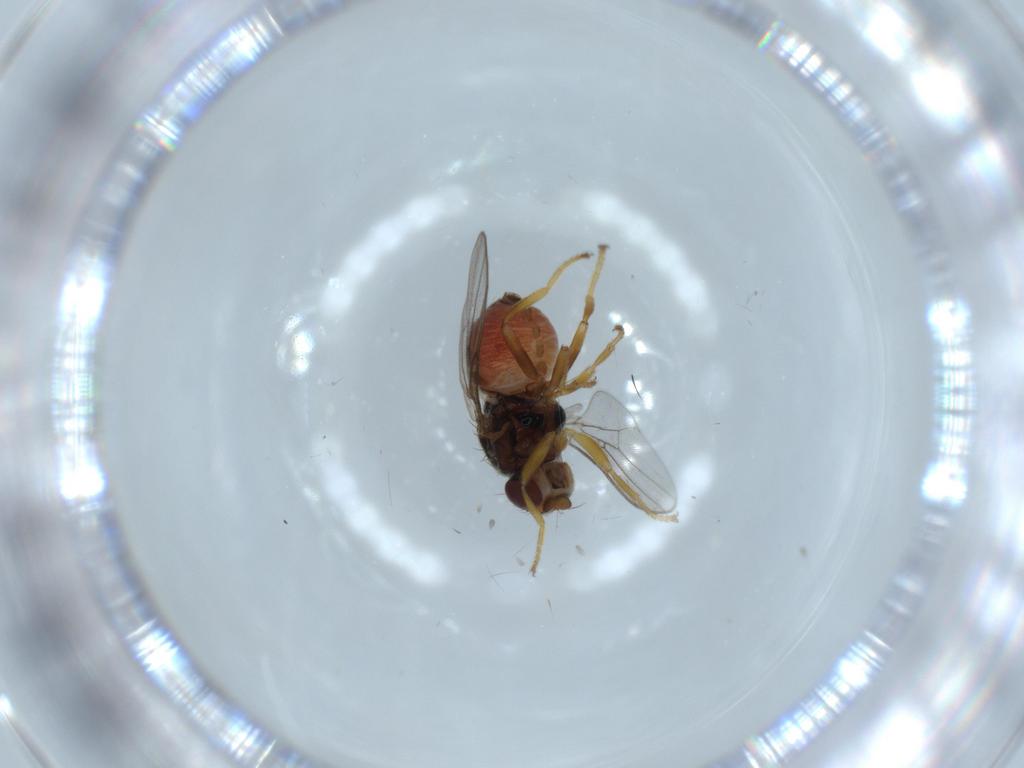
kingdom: Animalia
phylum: Arthropoda
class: Insecta
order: Diptera
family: Chloropidae
